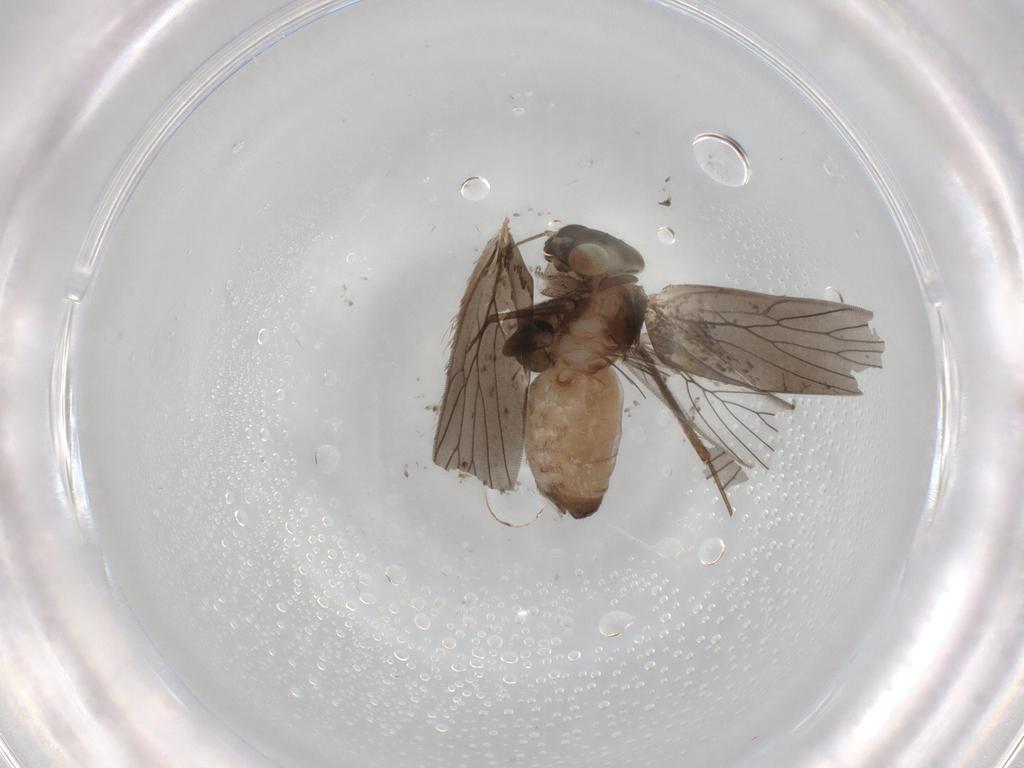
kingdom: Animalia
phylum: Arthropoda
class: Insecta
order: Psocodea
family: Lepidopsocidae
